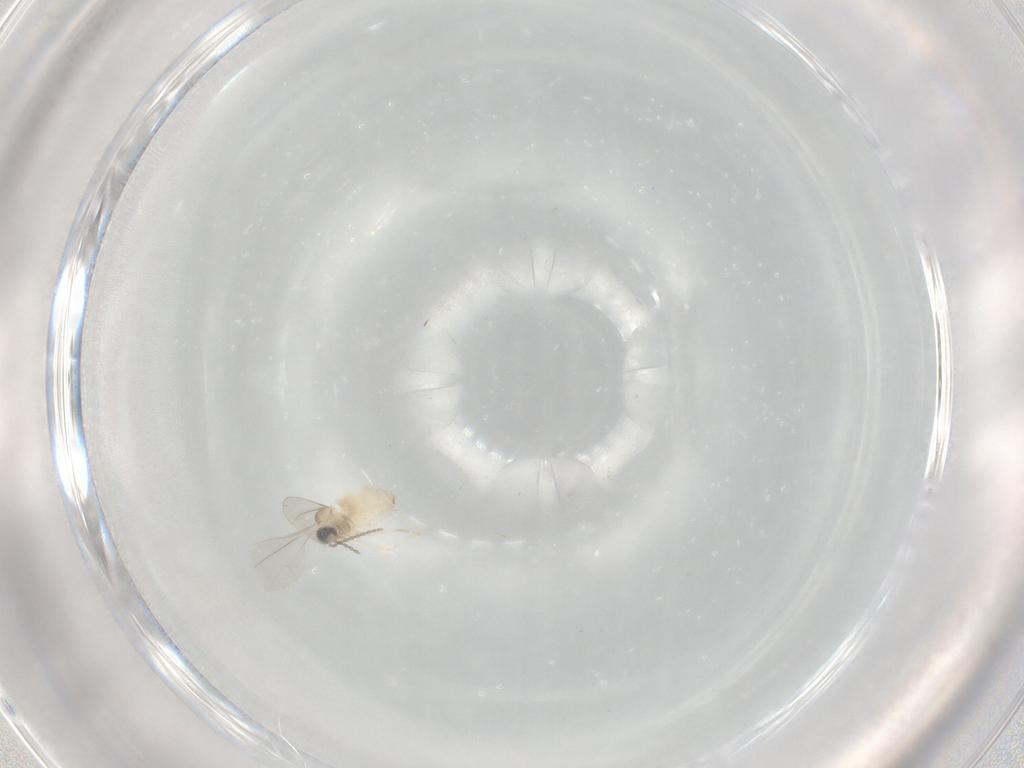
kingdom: Animalia
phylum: Arthropoda
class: Insecta
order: Diptera
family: Cecidomyiidae
